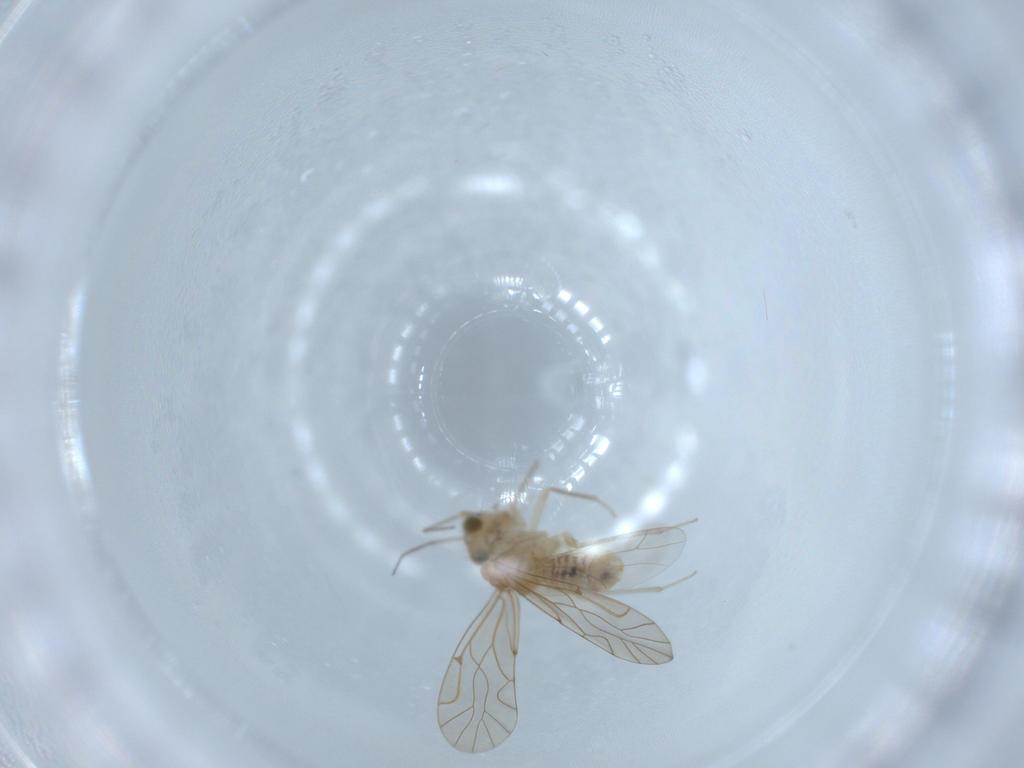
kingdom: Animalia
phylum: Arthropoda
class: Insecta
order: Psocodea
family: Lachesillidae
